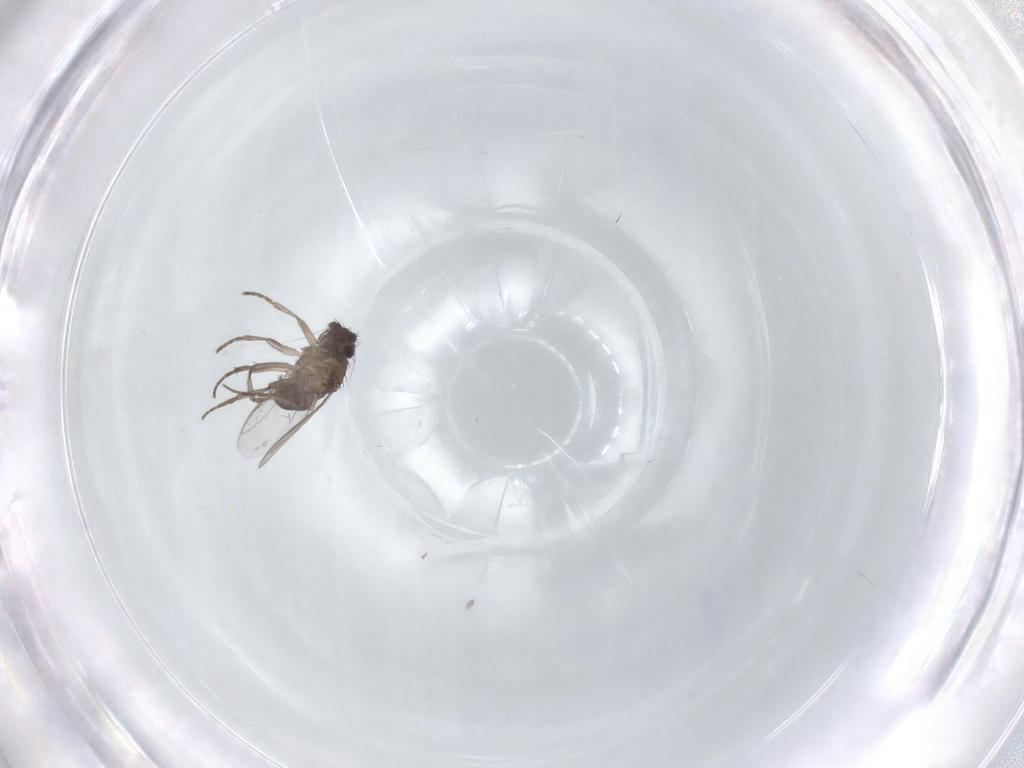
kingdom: Animalia
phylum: Arthropoda
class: Insecta
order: Diptera
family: Sphaeroceridae
